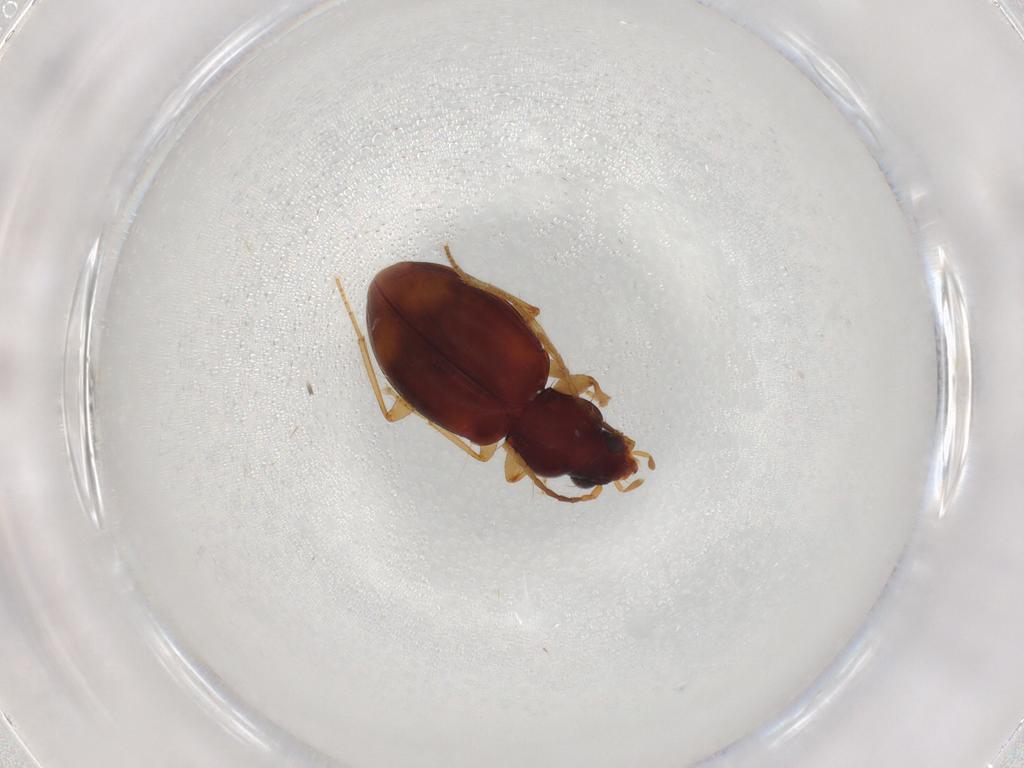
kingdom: Animalia
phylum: Arthropoda
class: Insecta
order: Coleoptera
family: Carabidae
